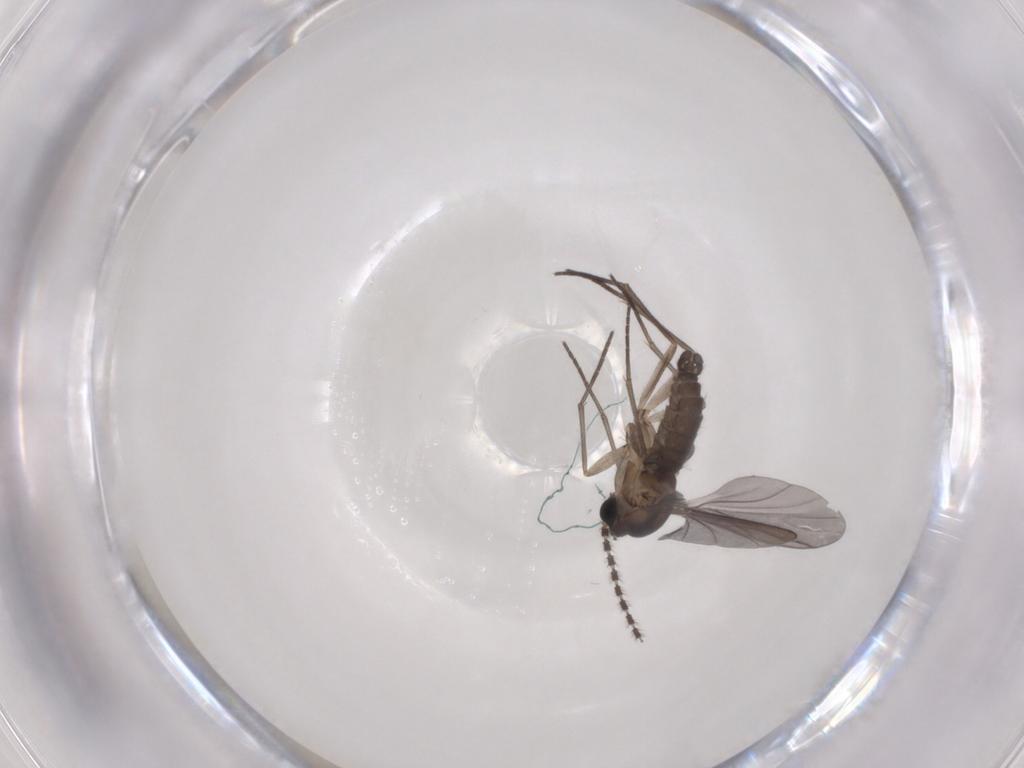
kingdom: Animalia
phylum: Arthropoda
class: Insecta
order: Diptera
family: Sciaridae
